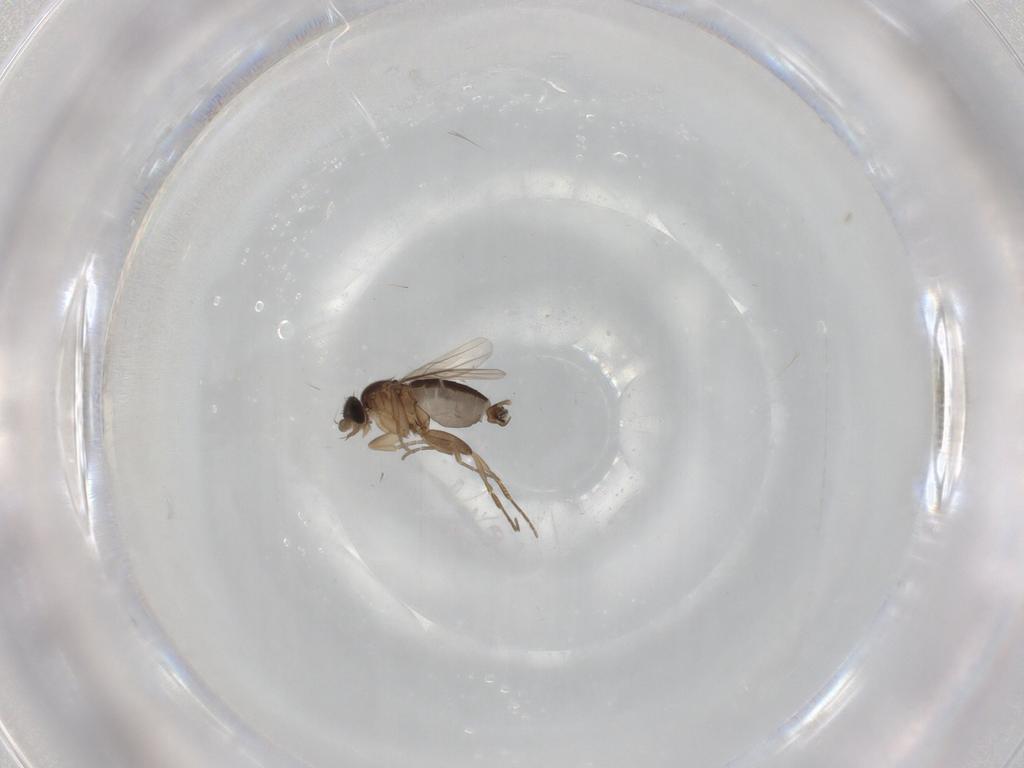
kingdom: Animalia
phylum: Arthropoda
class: Insecta
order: Diptera
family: Phoridae
